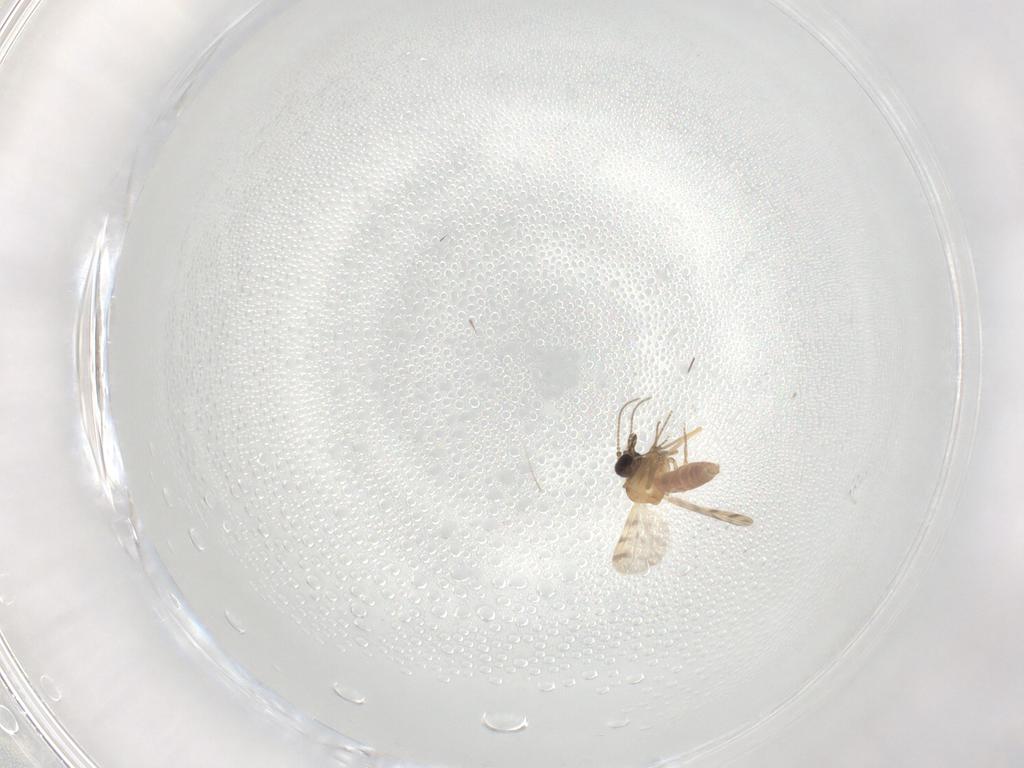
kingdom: Animalia
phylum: Arthropoda
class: Insecta
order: Diptera
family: Ceratopogonidae
